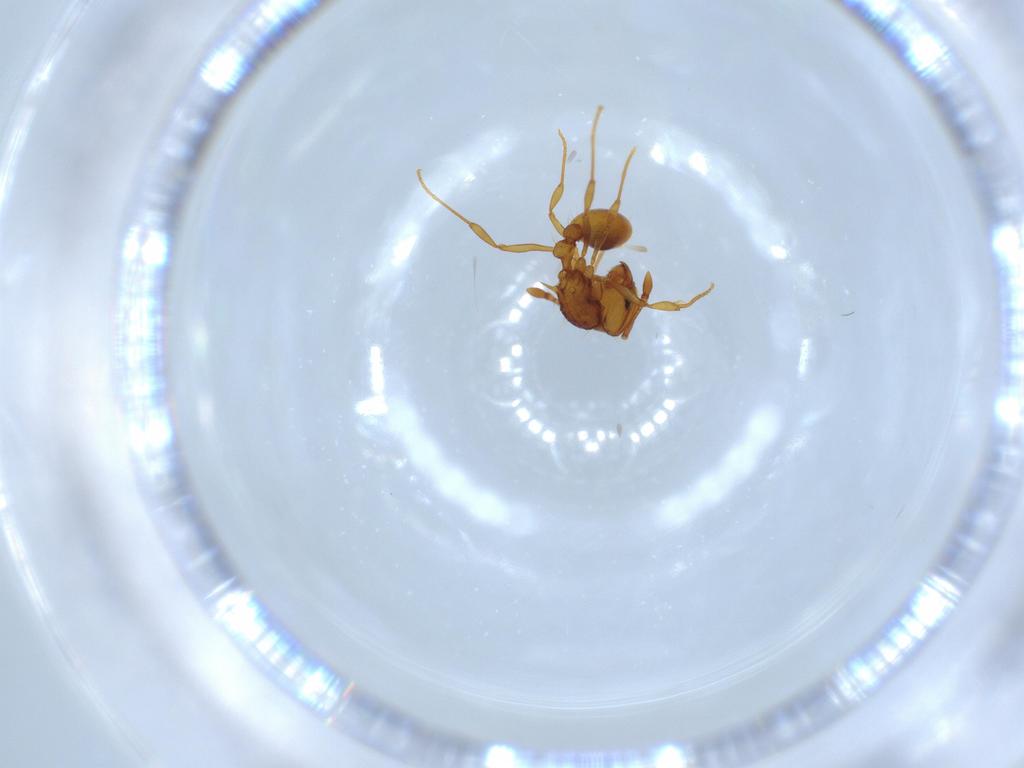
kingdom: Animalia
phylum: Arthropoda
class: Insecta
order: Hymenoptera
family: Formicidae
